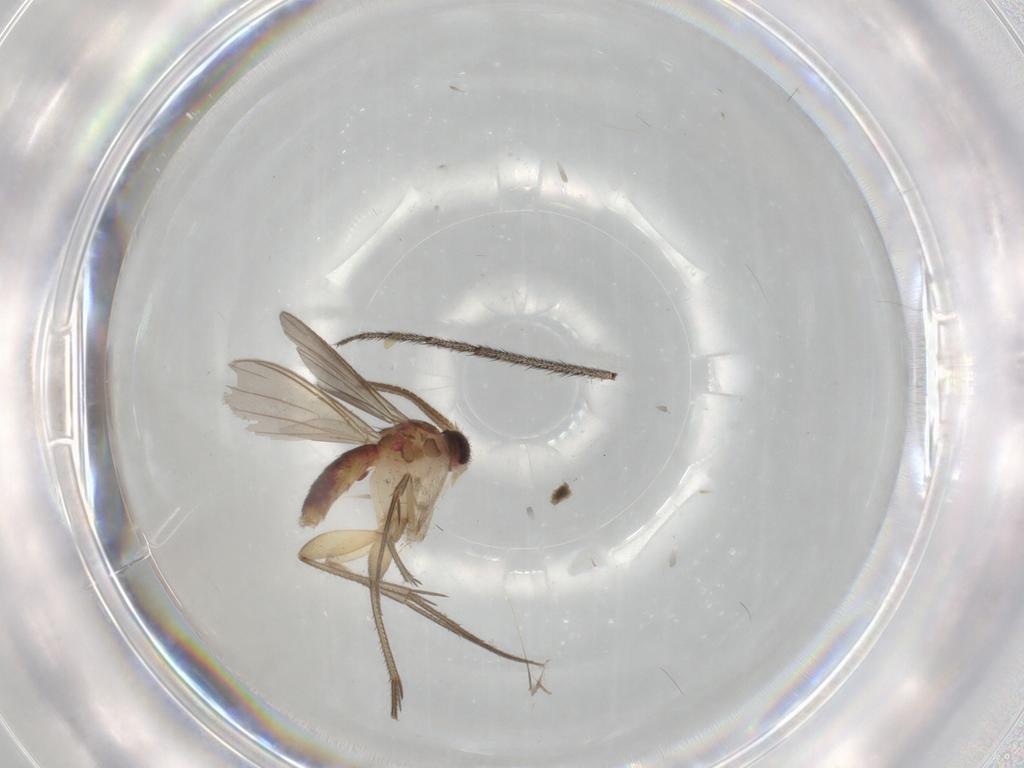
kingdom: Animalia
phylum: Arthropoda
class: Insecta
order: Diptera
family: Mycetophilidae
